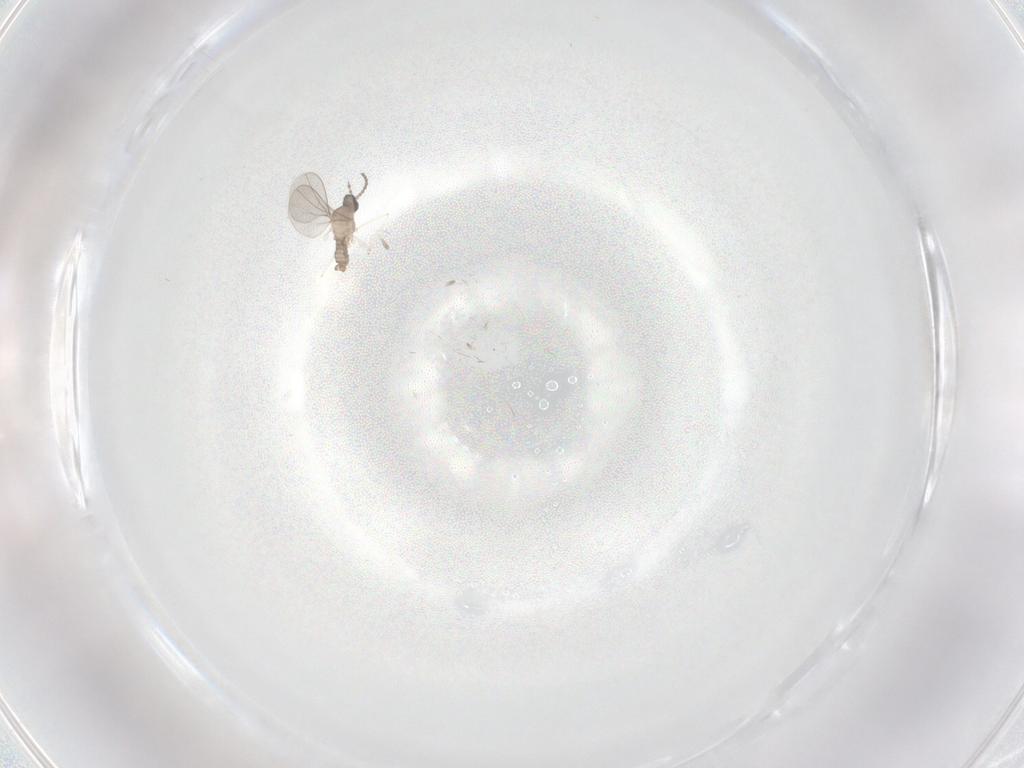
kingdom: Animalia
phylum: Arthropoda
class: Insecta
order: Diptera
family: Cecidomyiidae
